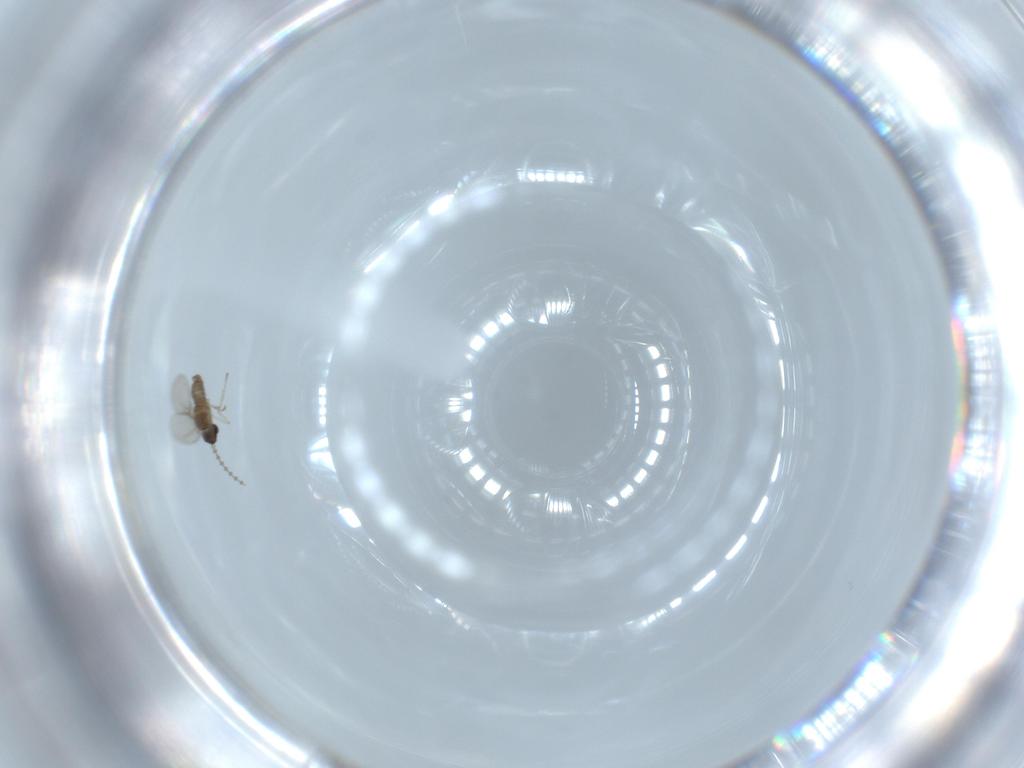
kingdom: Animalia
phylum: Arthropoda
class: Insecta
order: Diptera
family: Cecidomyiidae
